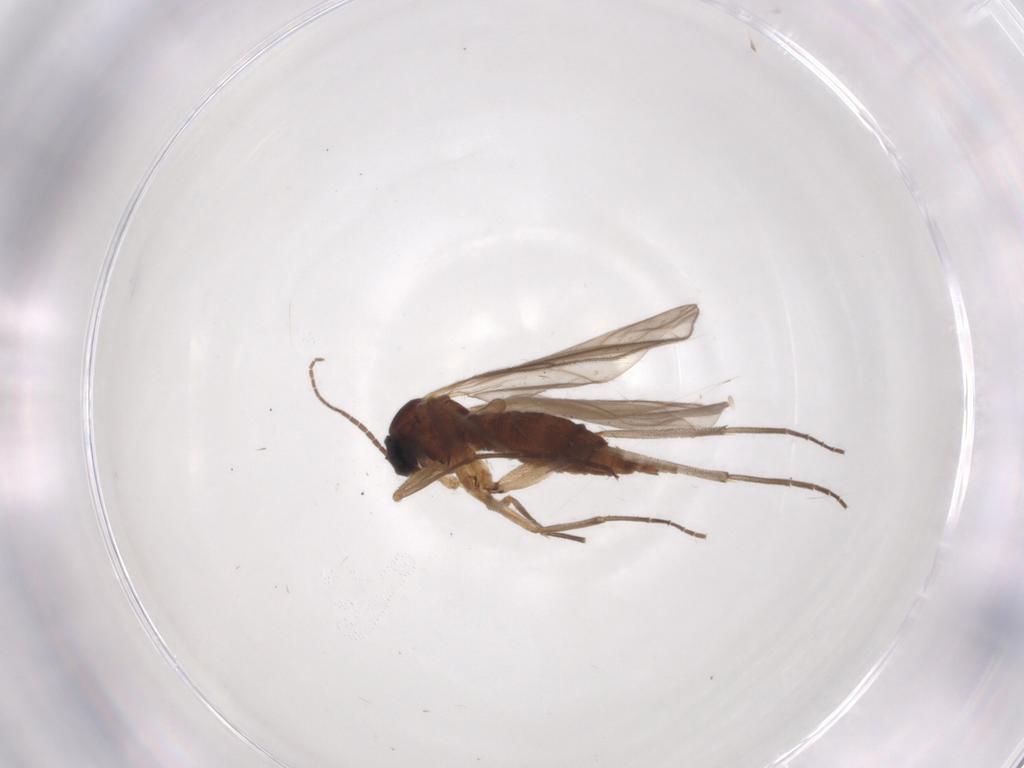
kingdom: Animalia
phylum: Arthropoda
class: Insecta
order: Diptera
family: Sciaridae
